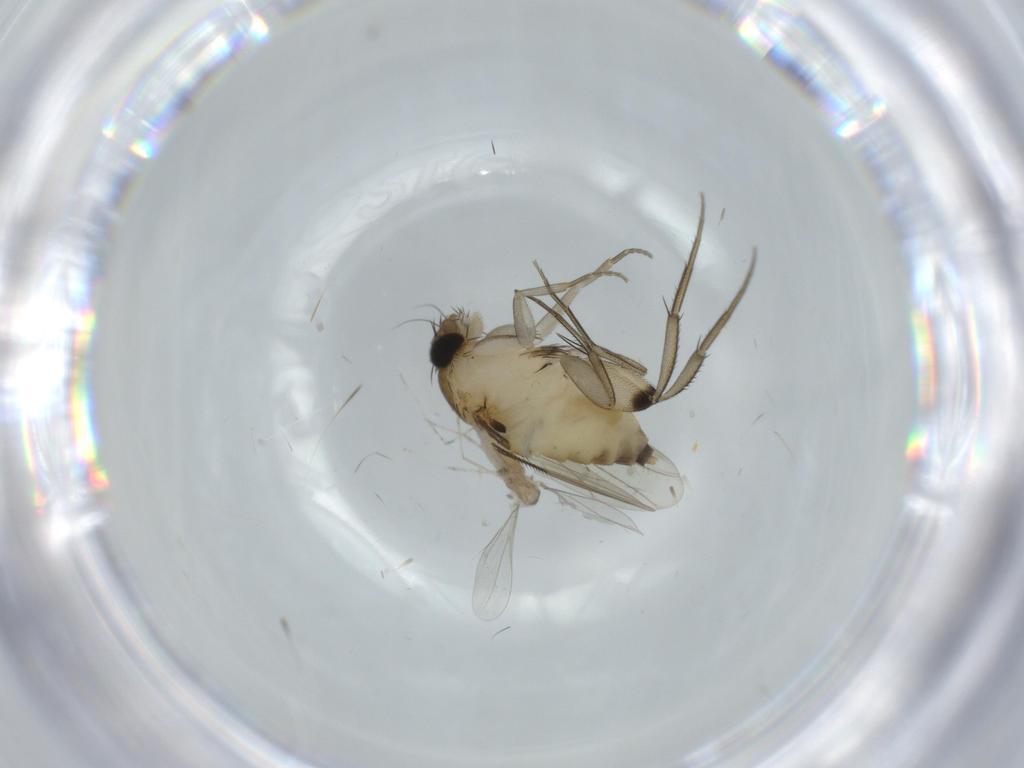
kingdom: Animalia
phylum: Arthropoda
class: Insecta
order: Diptera
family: Phoridae
